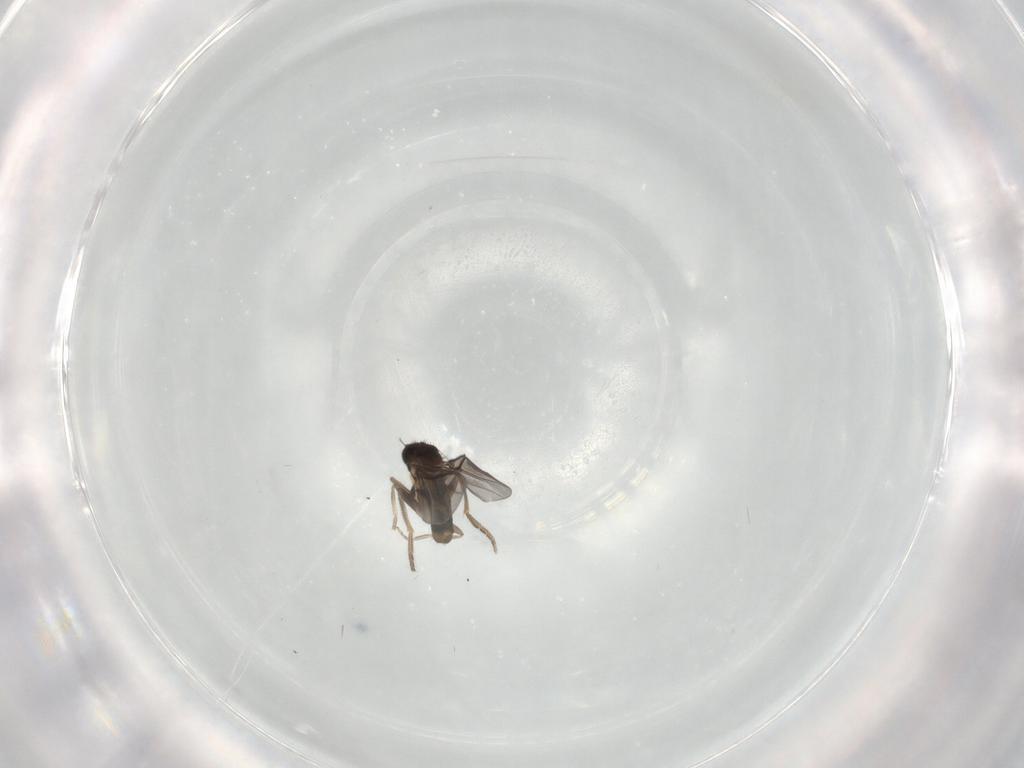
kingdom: Animalia
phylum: Arthropoda
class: Insecta
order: Diptera
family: Ceratopogonidae
